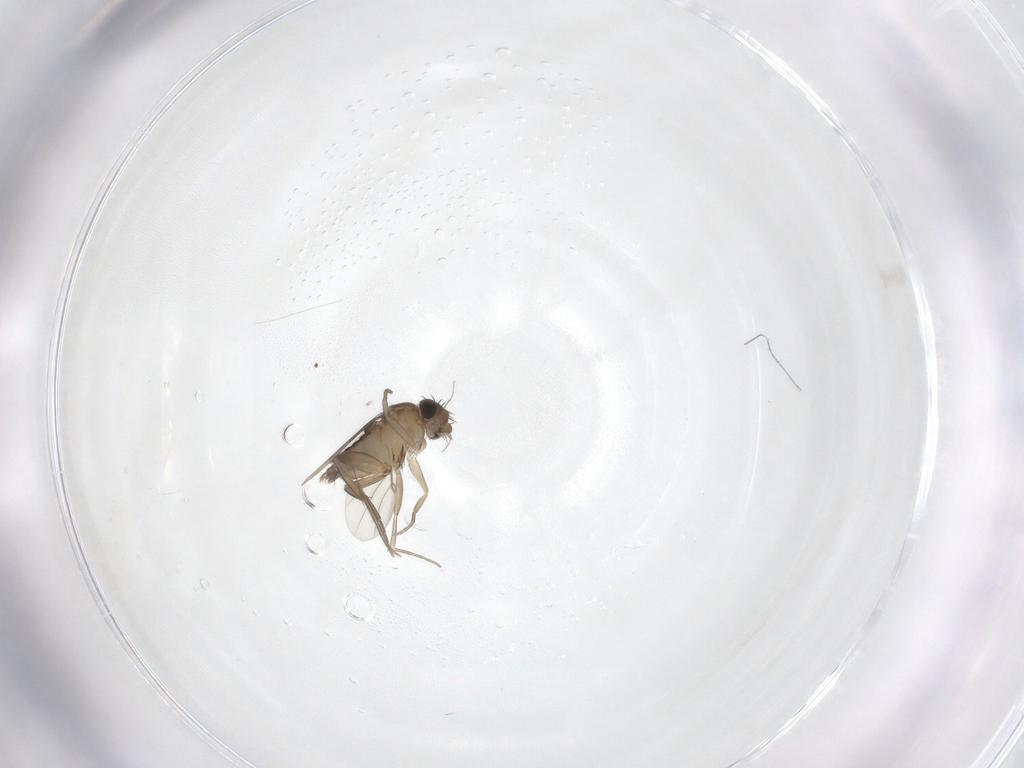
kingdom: Animalia
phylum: Arthropoda
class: Insecta
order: Diptera
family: Phoridae
